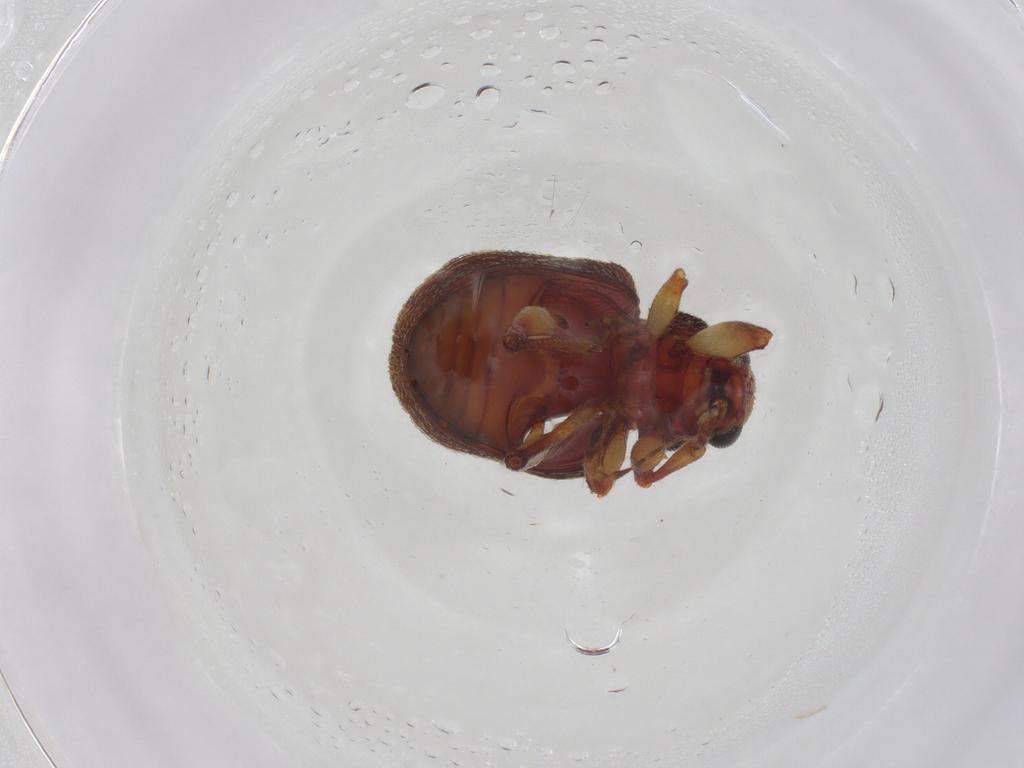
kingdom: Animalia
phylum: Arthropoda
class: Insecta
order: Coleoptera
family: Chrysomelidae
